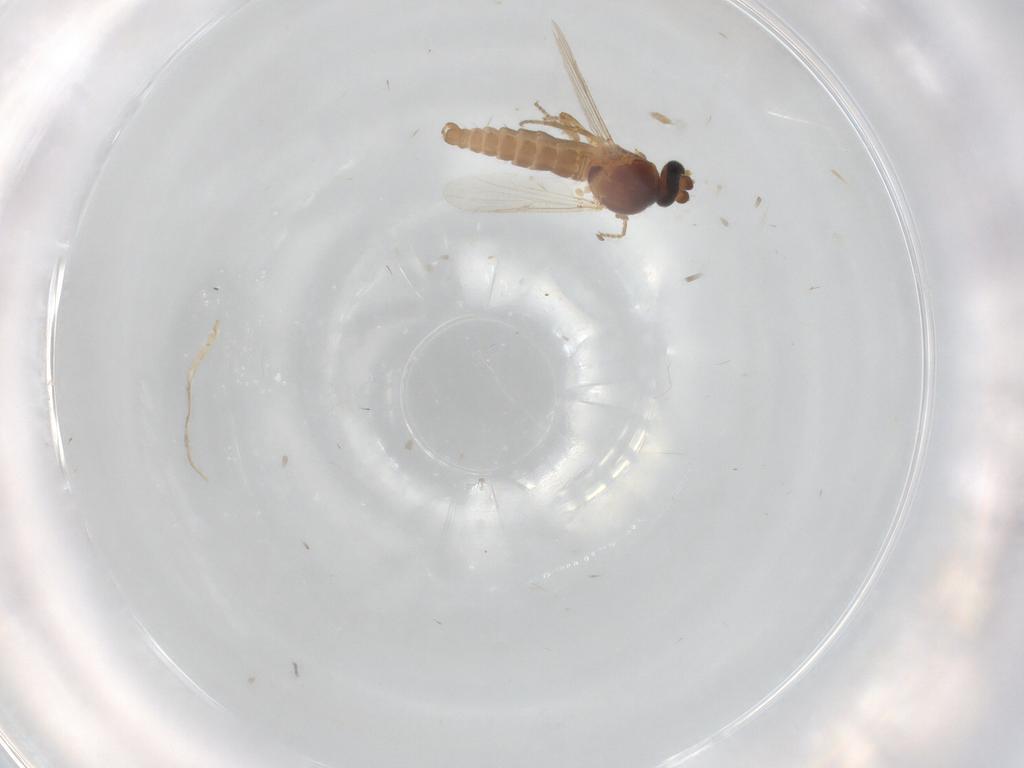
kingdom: Animalia
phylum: Arthropoda
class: Insecta
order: Diptera
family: Ceratopogonidae
